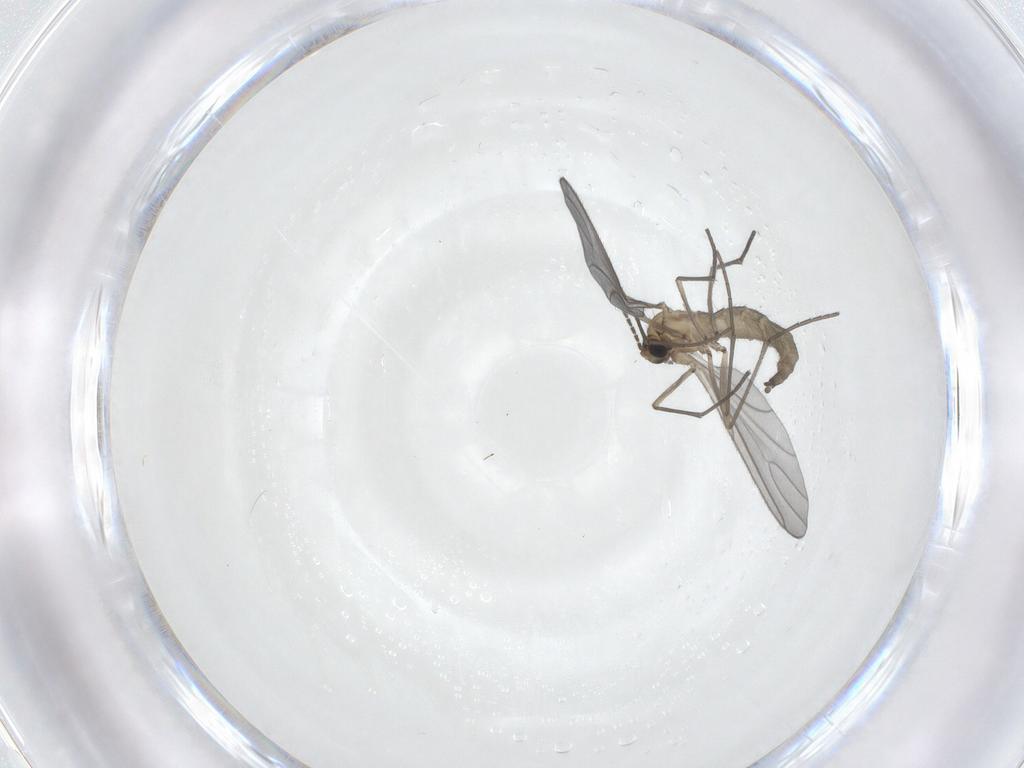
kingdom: Animalia
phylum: Arthropoda
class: Insecta
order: Diptera
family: Sciaridae
